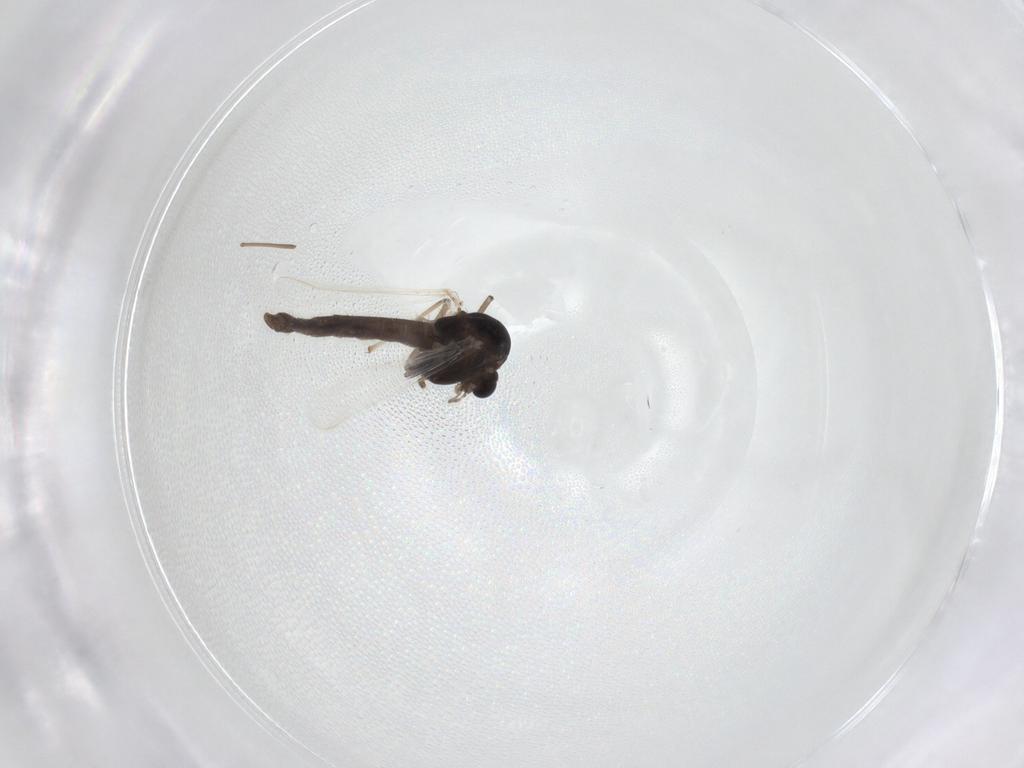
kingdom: Animalia
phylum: Arthropoda
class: Insecta
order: Diptera
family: Chironomidae
